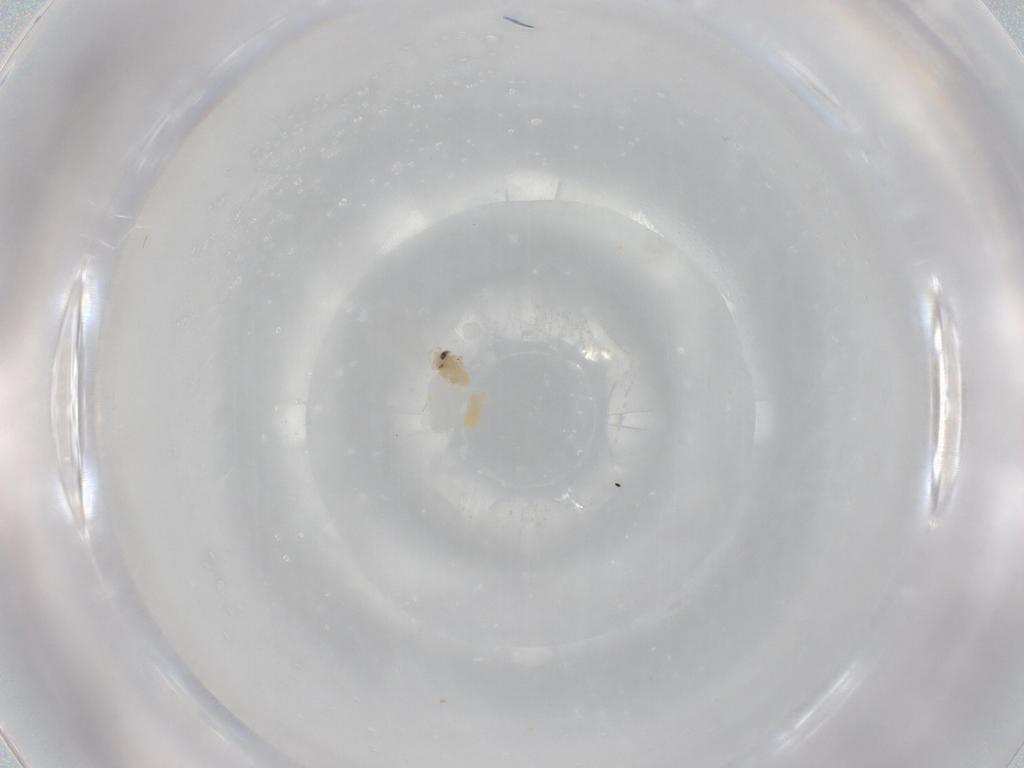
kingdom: Animalia
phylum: Arthropoda
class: Insecta
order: Hemiptera
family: Aleyrodidae
